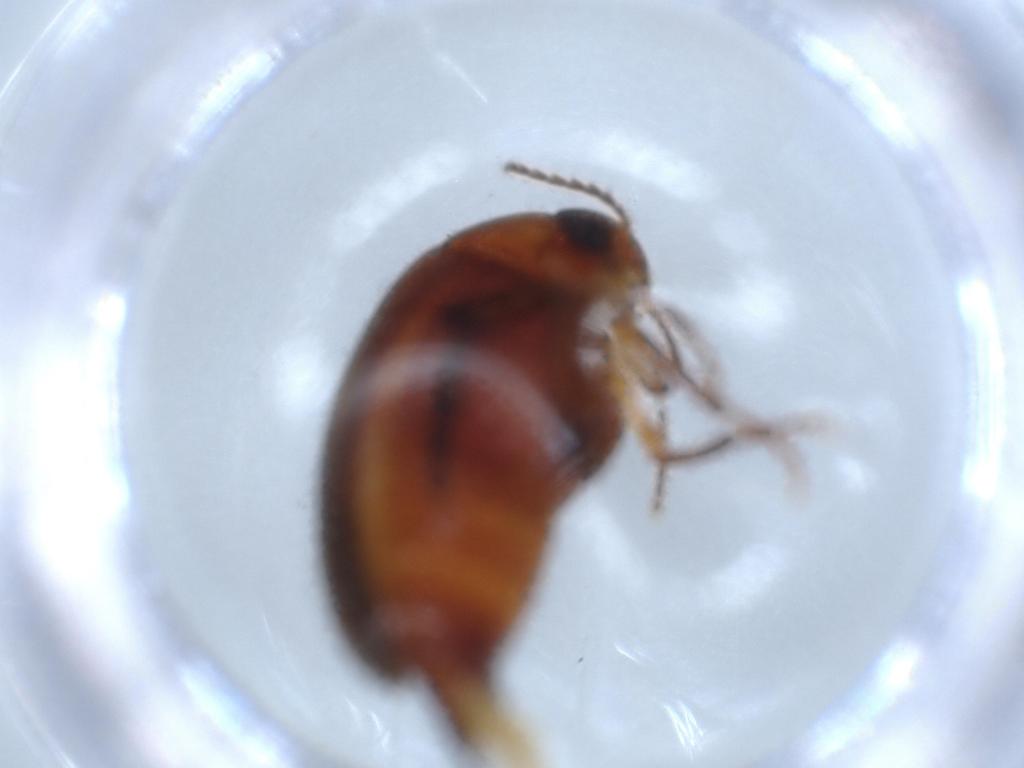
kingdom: Animalia
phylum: Arthropoda
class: Insecta
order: Coleoptera
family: Mordellidae
